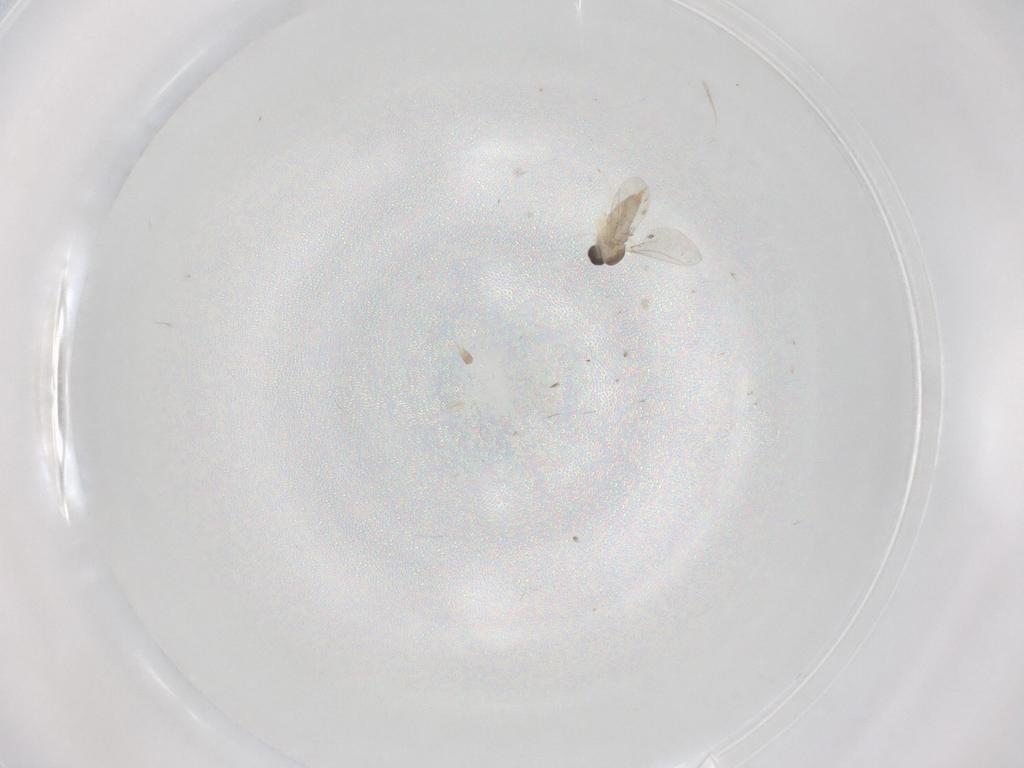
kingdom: Animalia
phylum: Arthropoda
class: Insecta
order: Diptera
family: Cecidomyiidae
